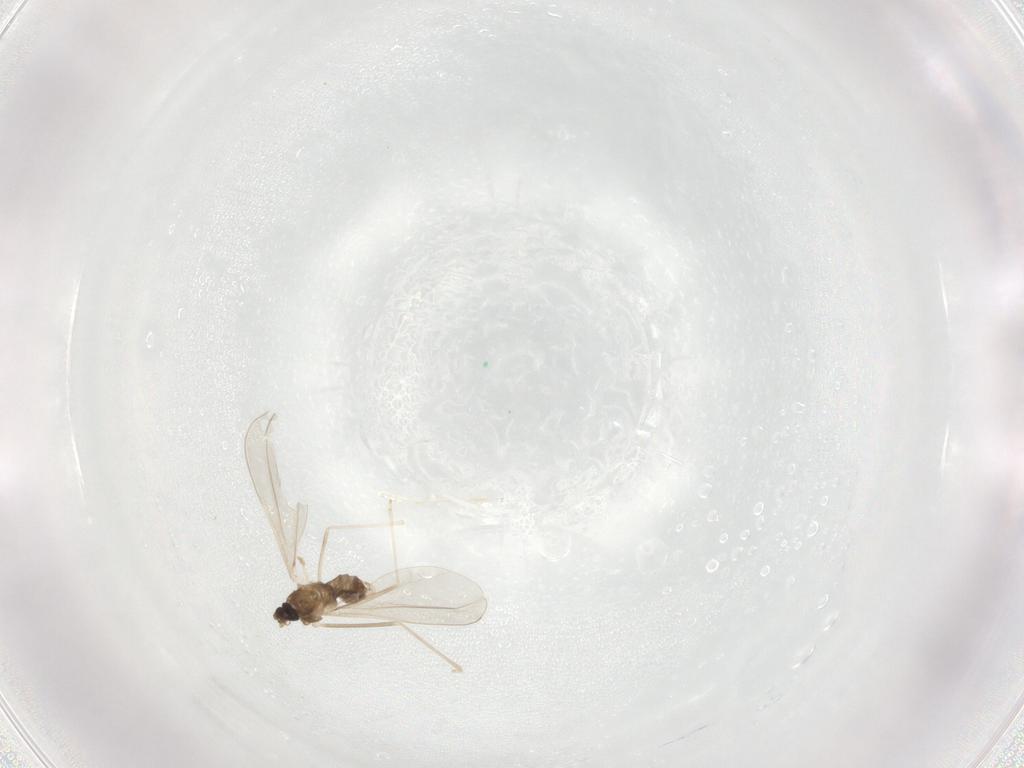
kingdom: Animalia
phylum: Arthropoda
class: Insecta
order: Diptera
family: Cecidomyiidae
